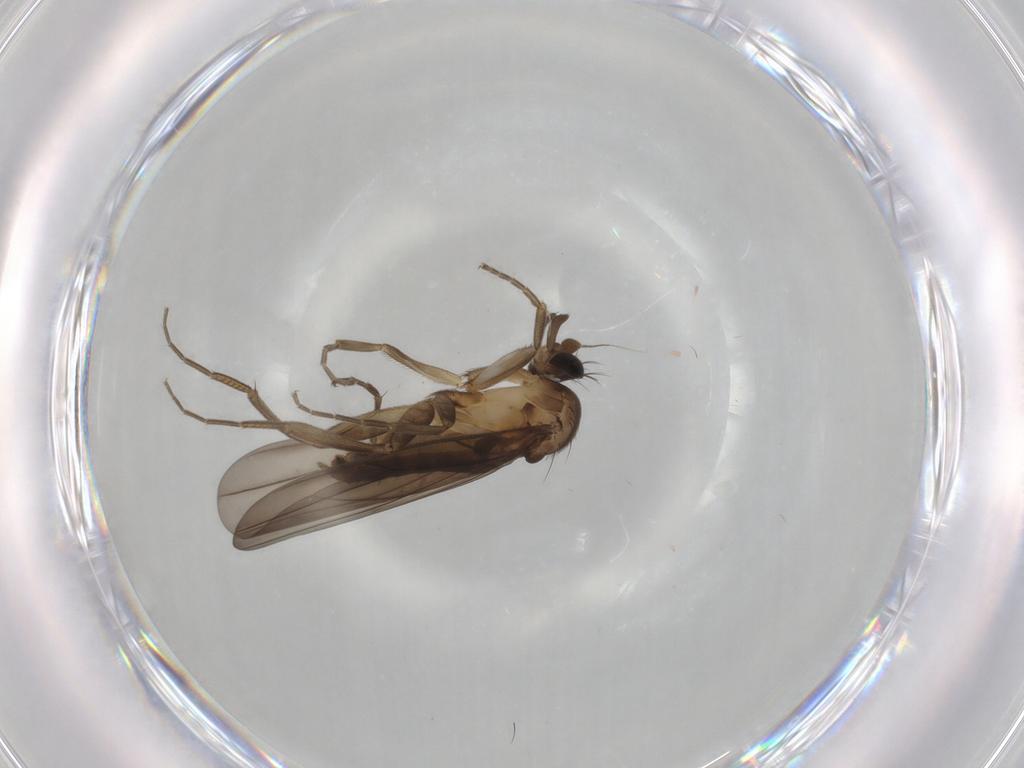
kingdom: Animalia
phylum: Arthropoda
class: Insecta
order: Diptera
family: Phoridae
